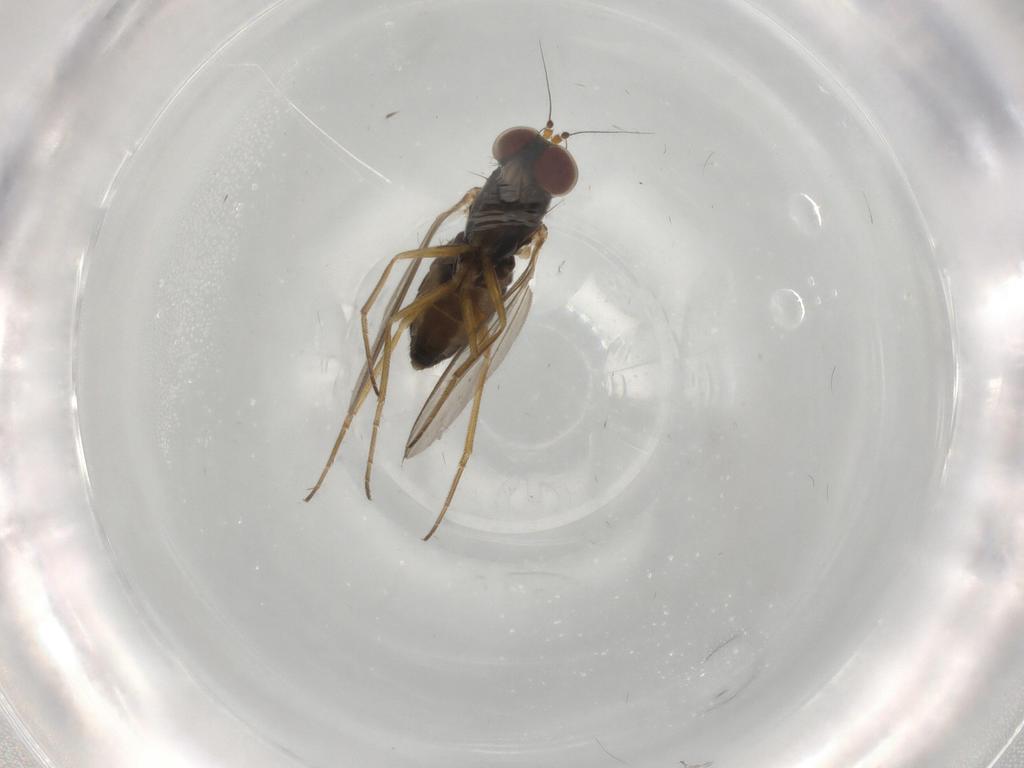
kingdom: Animalia
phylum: Arthropoda
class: Insecta
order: Diptera
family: Dolichopodidae
